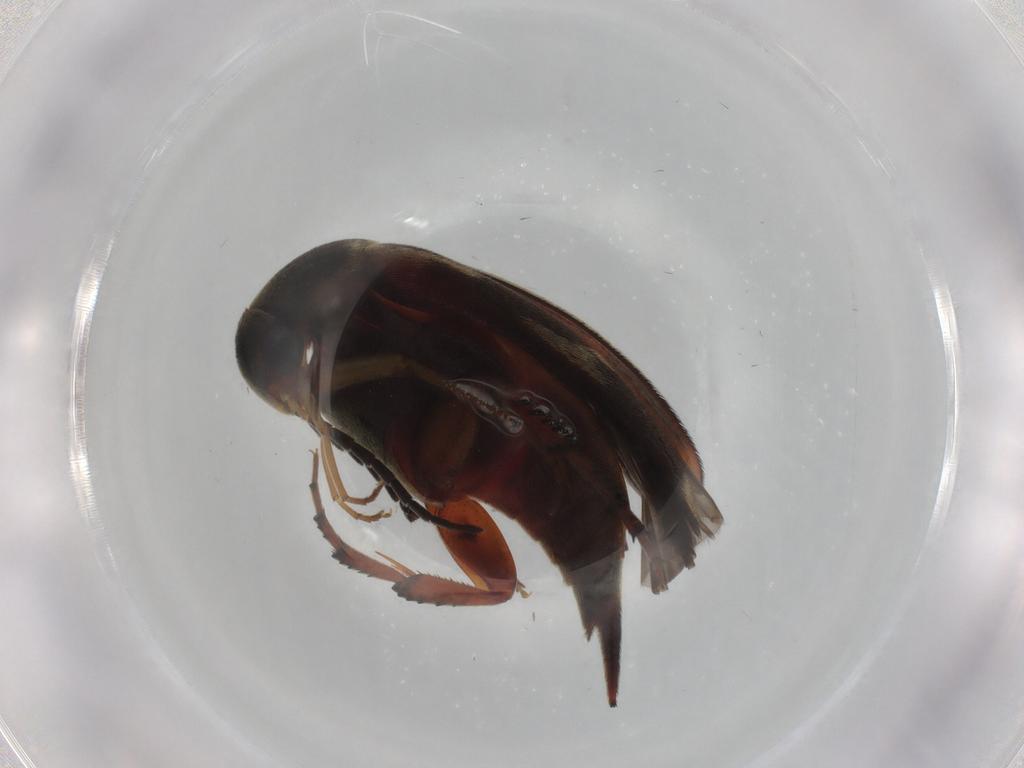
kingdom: Animalia
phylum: Arthropoda
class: Insecta
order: Coleoptera
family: Mordellidae
